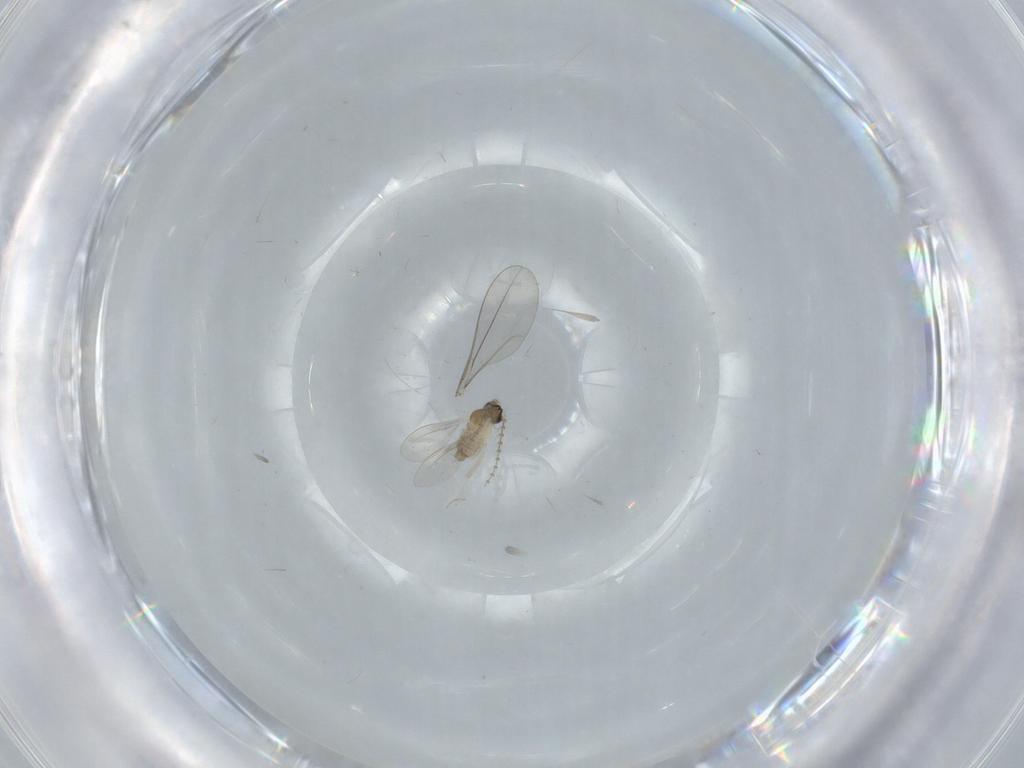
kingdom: Animalia
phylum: Arthropoda
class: Insecta
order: Diptera
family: Cecidomyiidae
